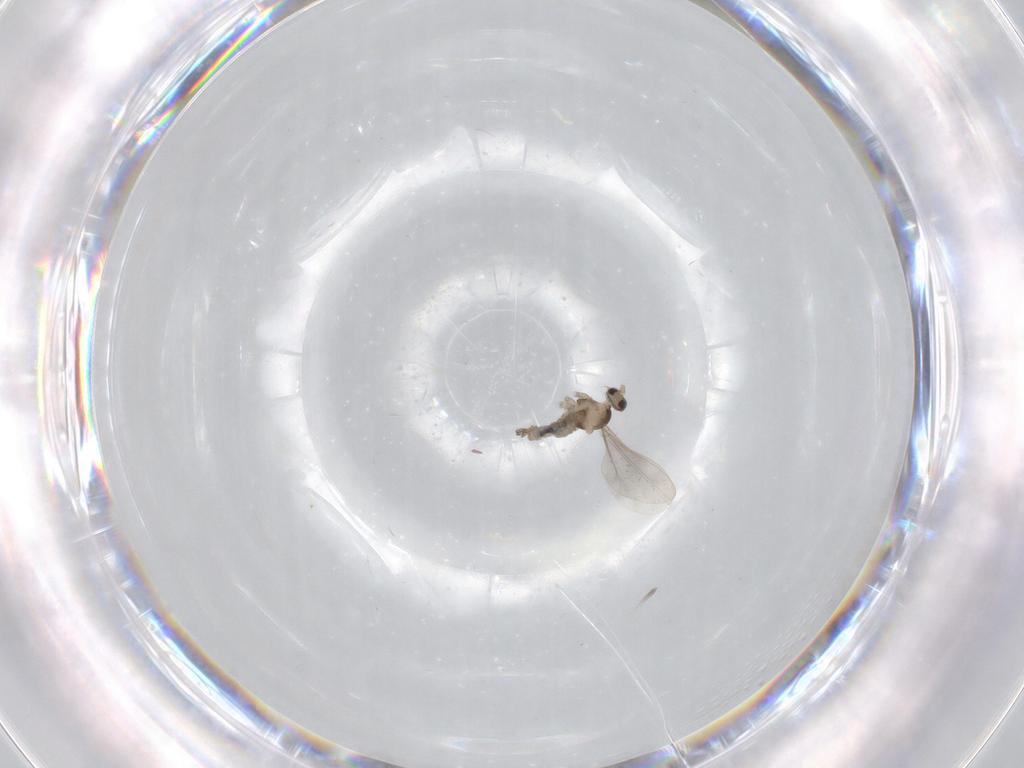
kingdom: Animalia
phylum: Arthropoda
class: Insecta
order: Diptera
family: Cecidomyiidae
